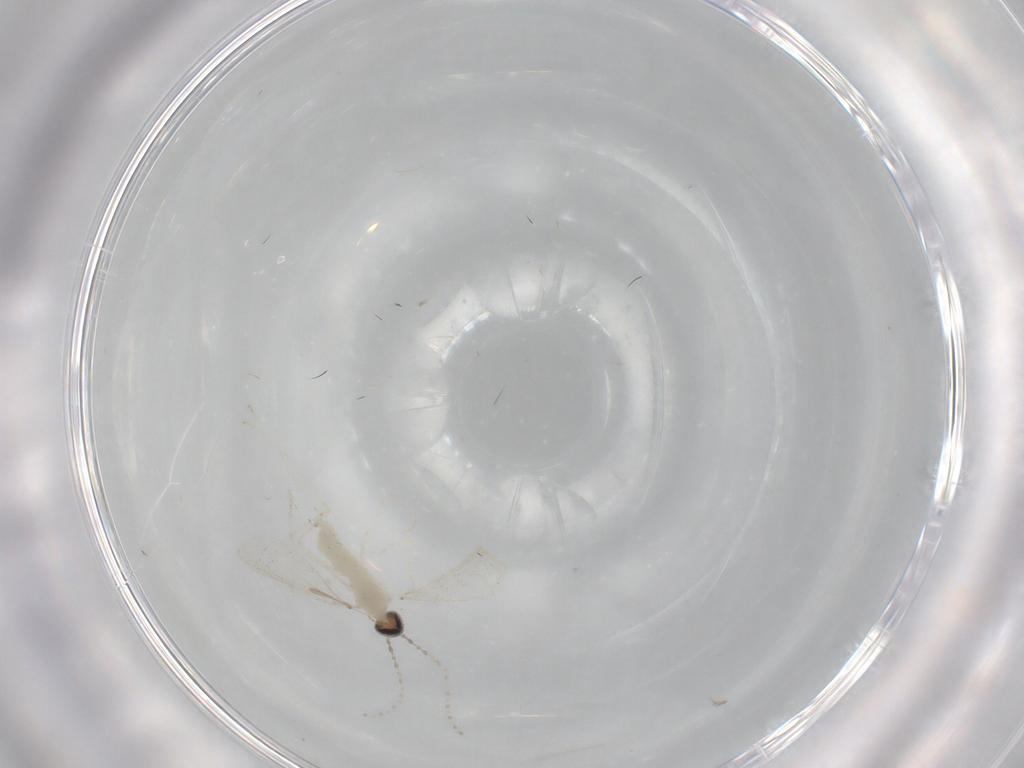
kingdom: Animalia
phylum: Arthropoda
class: Insecta
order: Diptera
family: Cecidomyiidae
